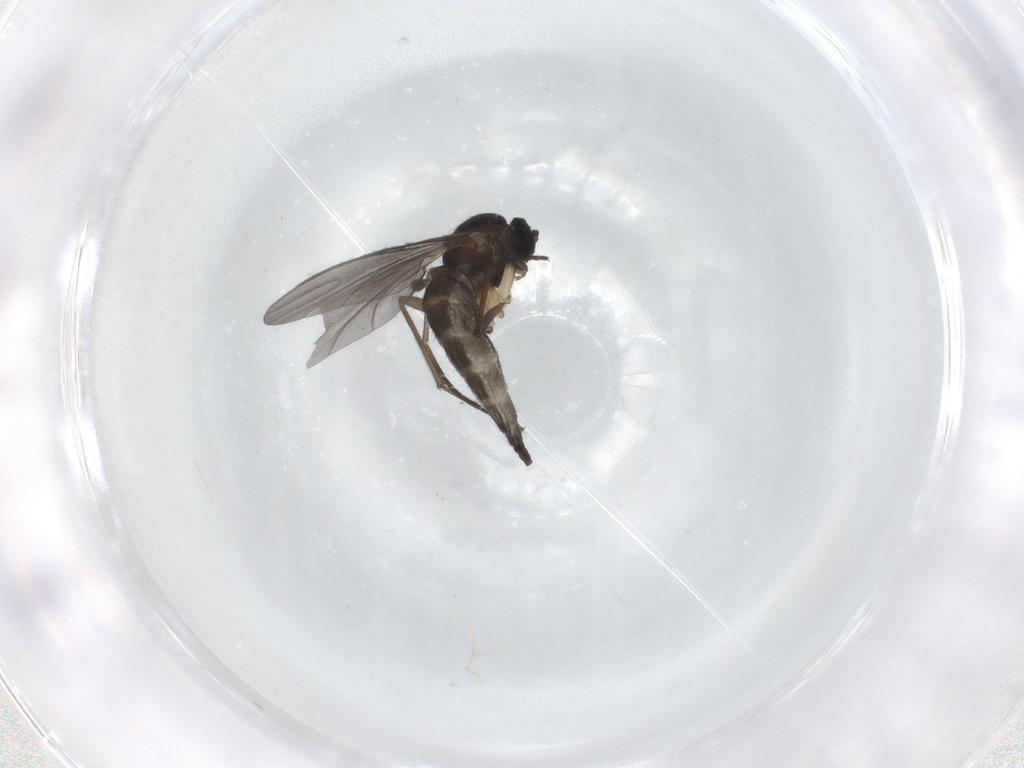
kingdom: Animalia
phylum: Arthropoda
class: Insecta
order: Diptera
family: Sciaridae
